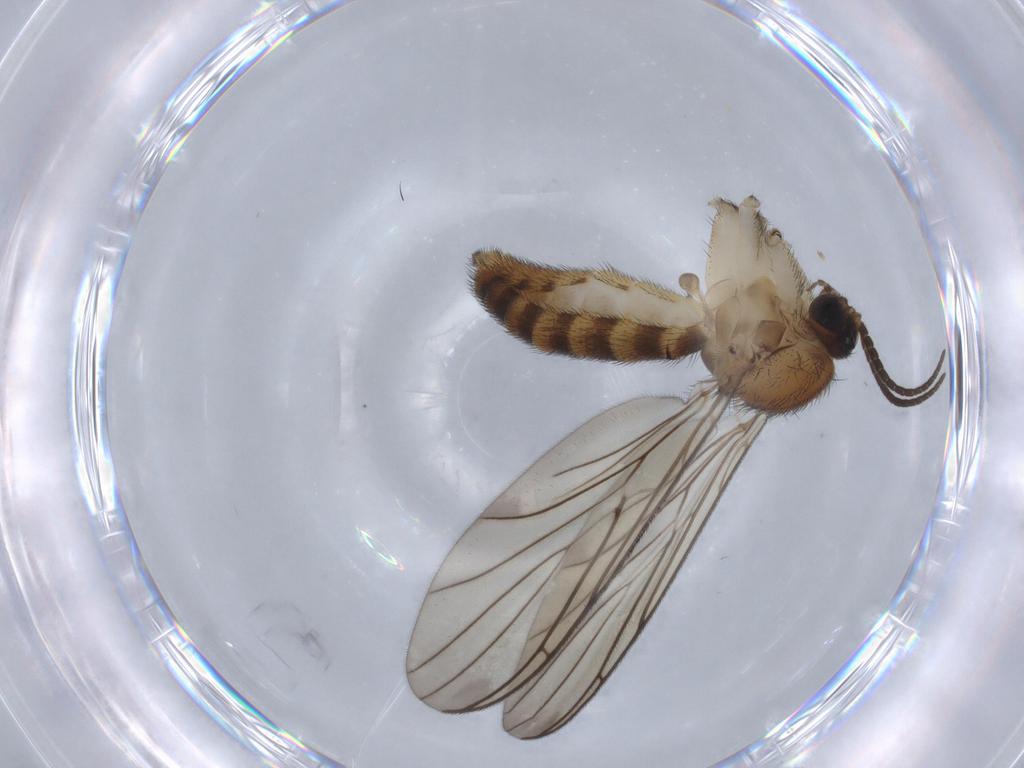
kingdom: Animalia
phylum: Arthropoda
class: Insecta
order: Diptera
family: Keroplatidae
